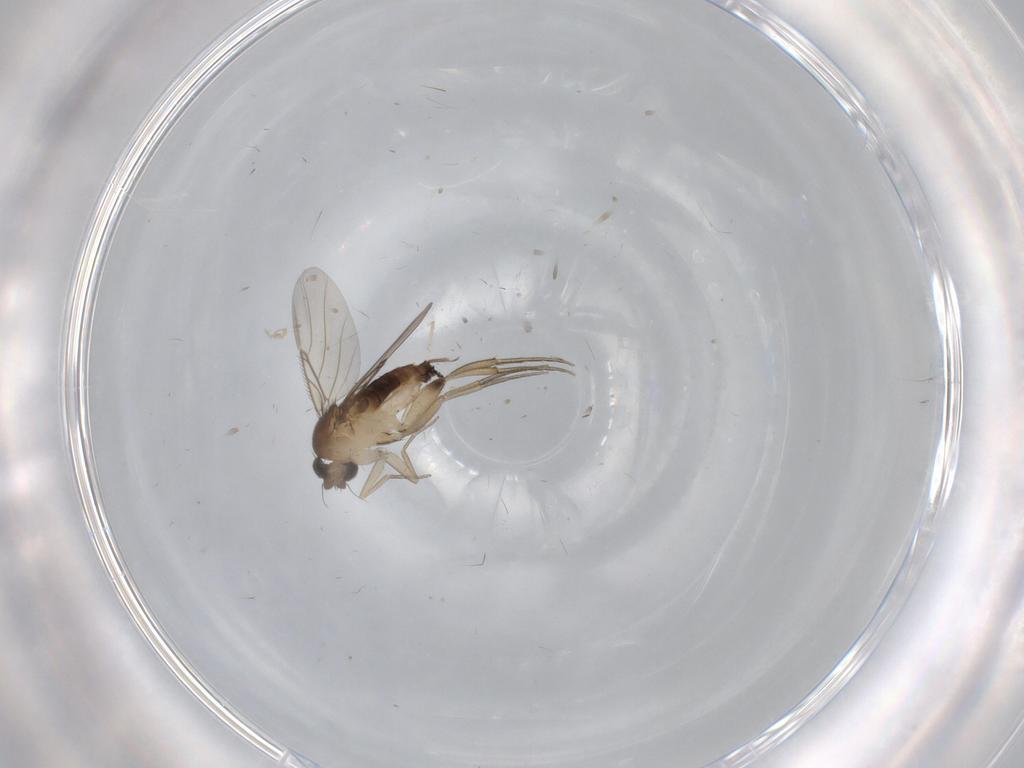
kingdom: Animalia
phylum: Arthropoda
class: Insecta
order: Diptera
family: Phoridae
